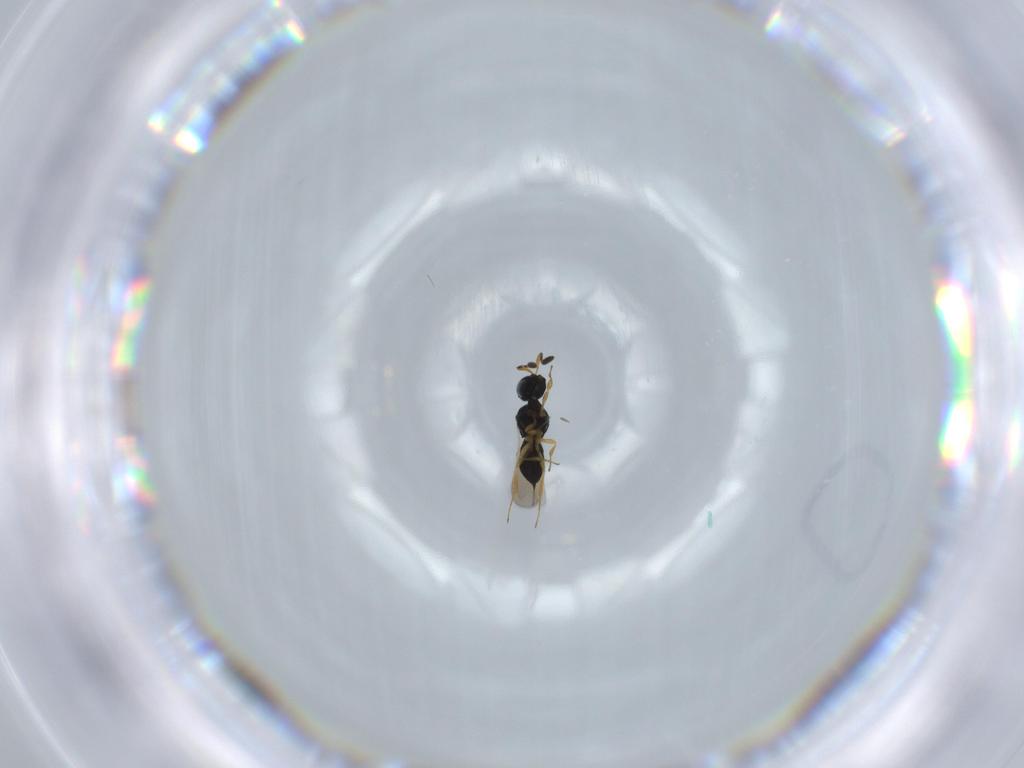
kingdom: Animalia
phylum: Arthropoda
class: Insecta
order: Hymenoptera
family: Scelionidae
